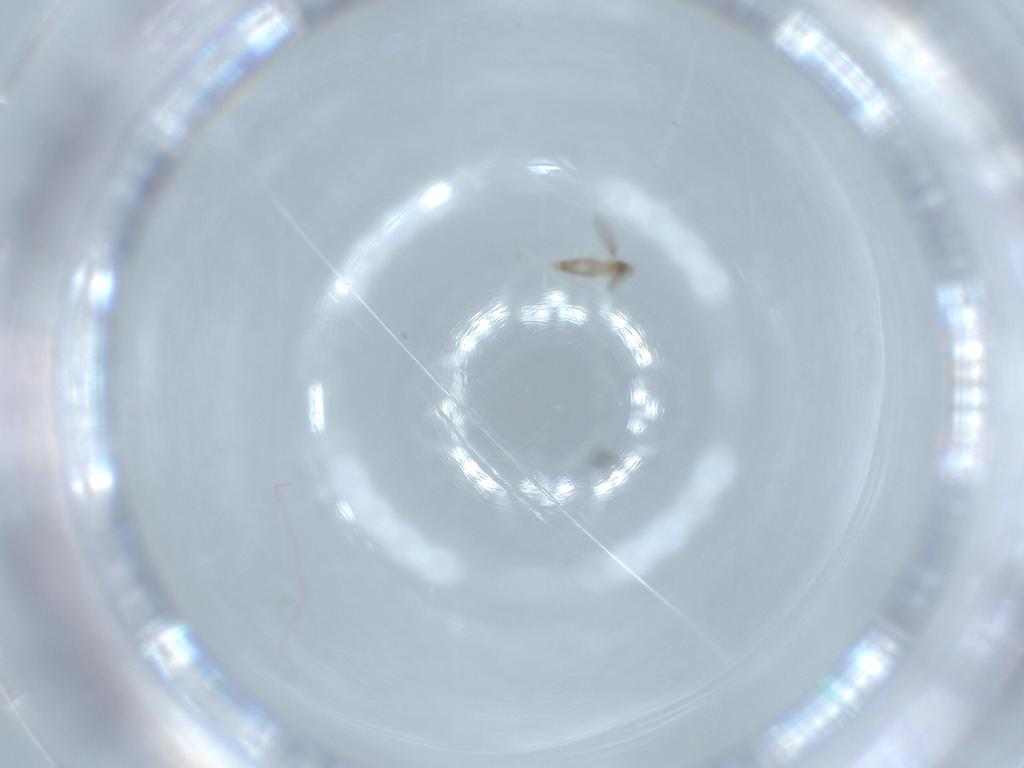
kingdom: Animalia
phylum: Arthropoda
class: Insecta
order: Diptera
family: Cecidomyiidae
